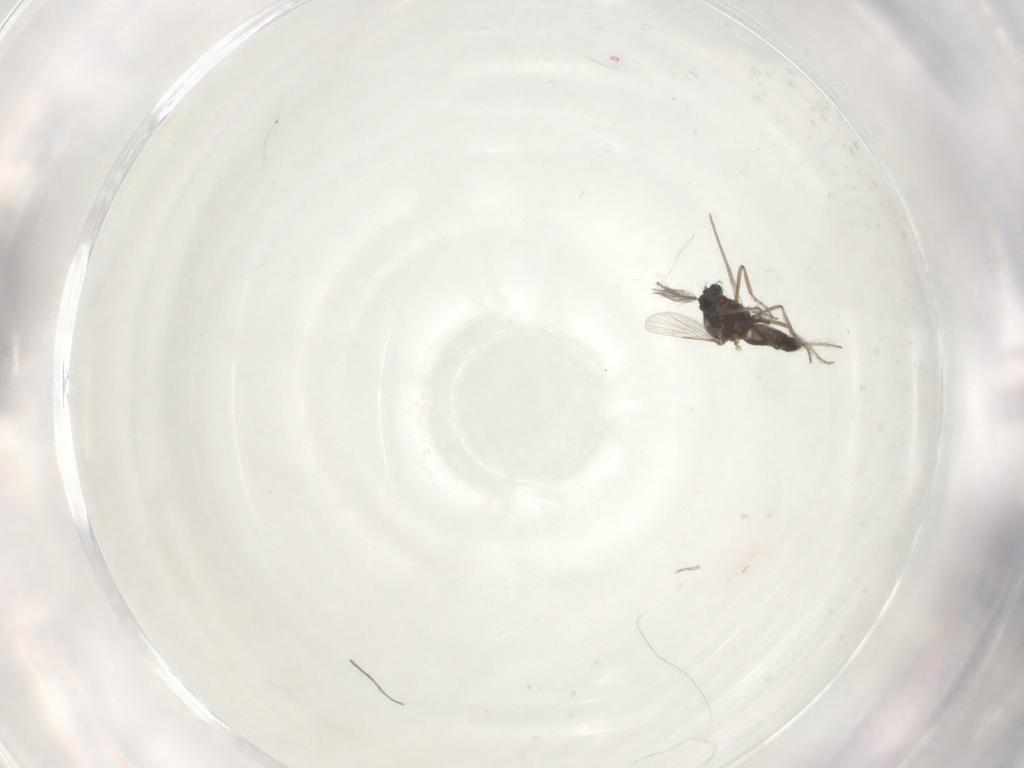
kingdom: Animalia
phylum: Arthropoda
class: Insecta
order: Diptera
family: Ceratopogonidae
